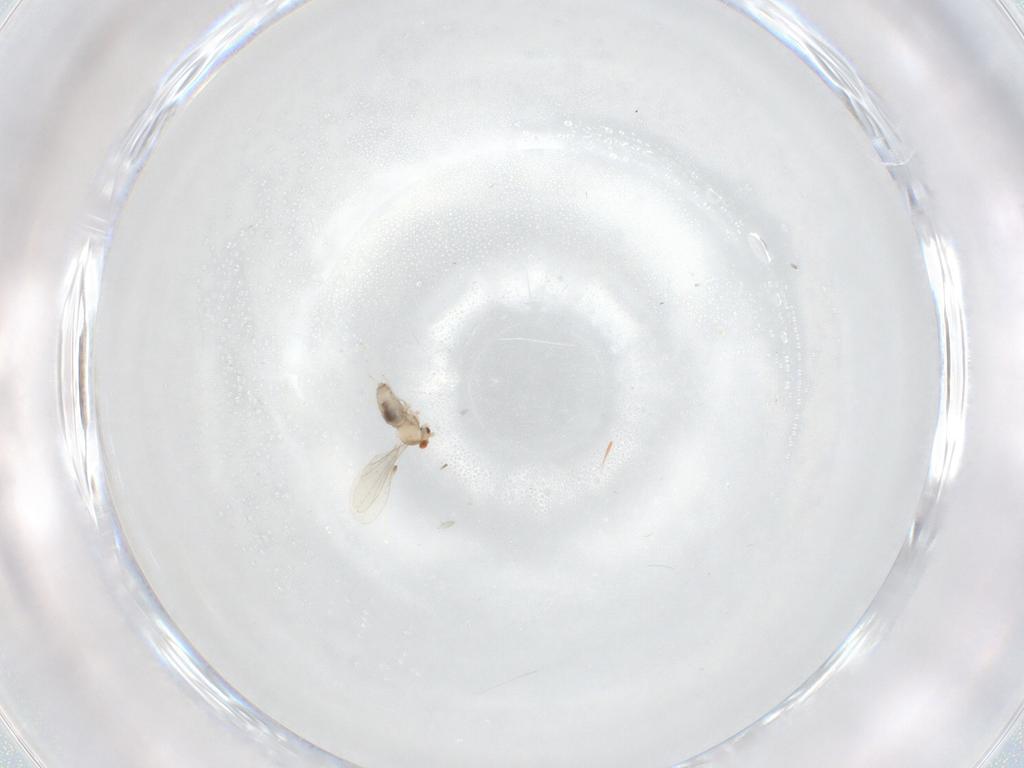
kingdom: Animalia
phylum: Arthropoda
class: Insecta
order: Diptera
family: Cecidomyiidae
